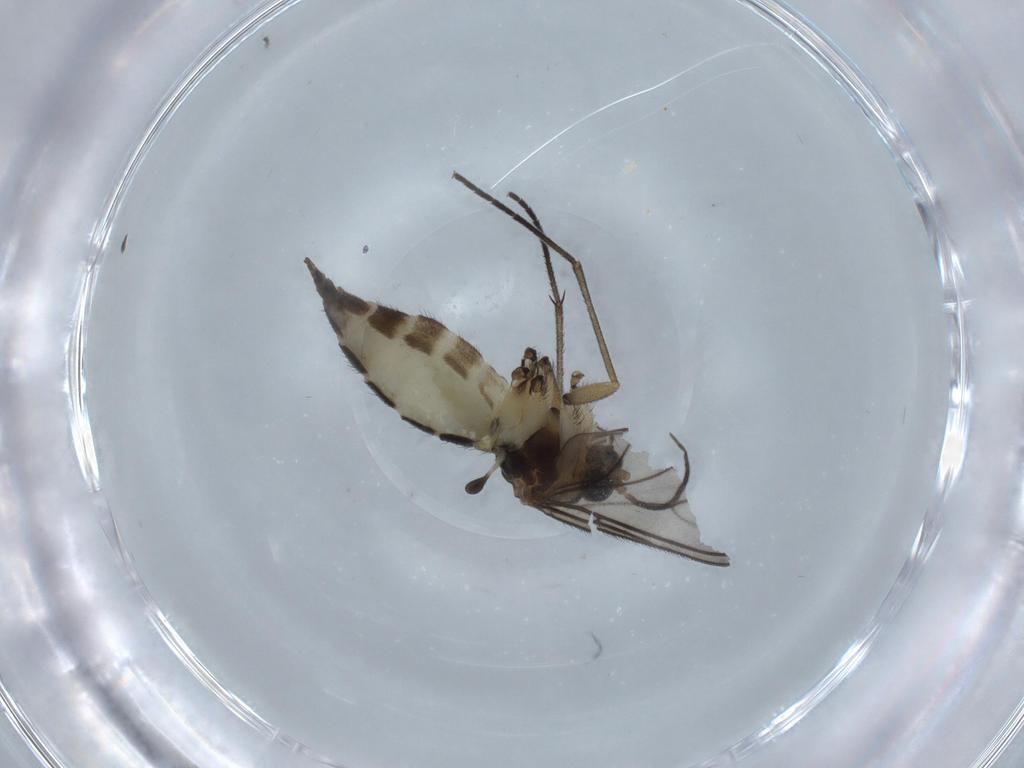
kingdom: Animalia
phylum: Arthropoda
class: Insecta
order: Diptera
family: Sciaridae
